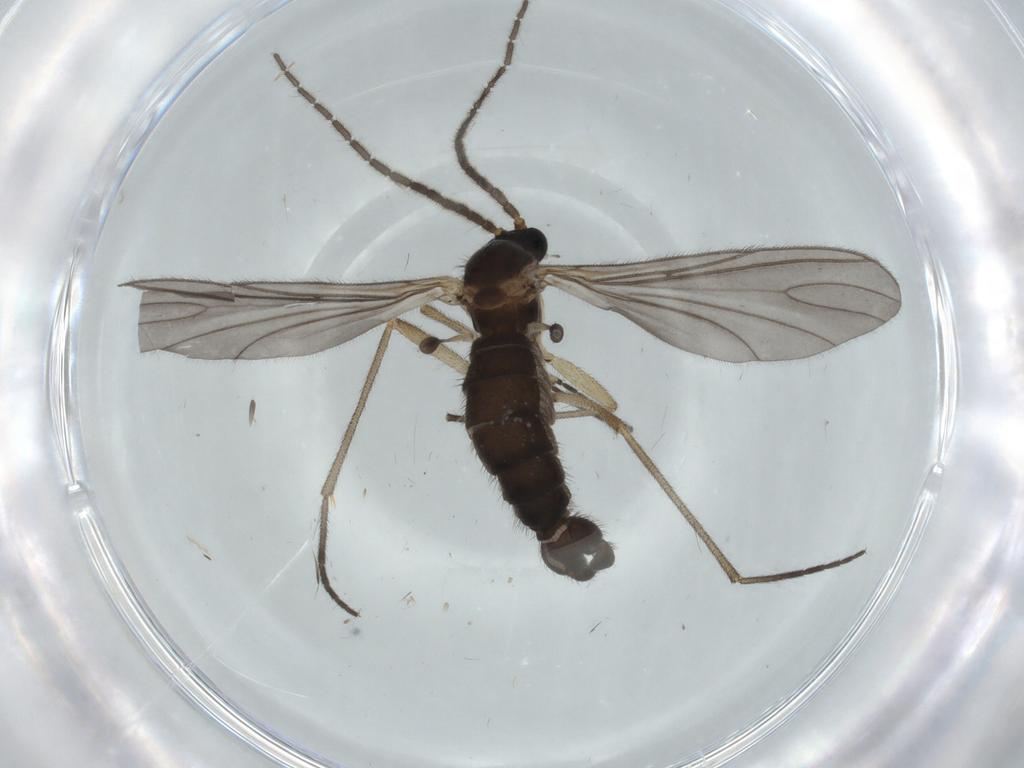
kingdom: Animalia
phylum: Arthropoda
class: Insecta
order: Diptera
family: Sciaridae
